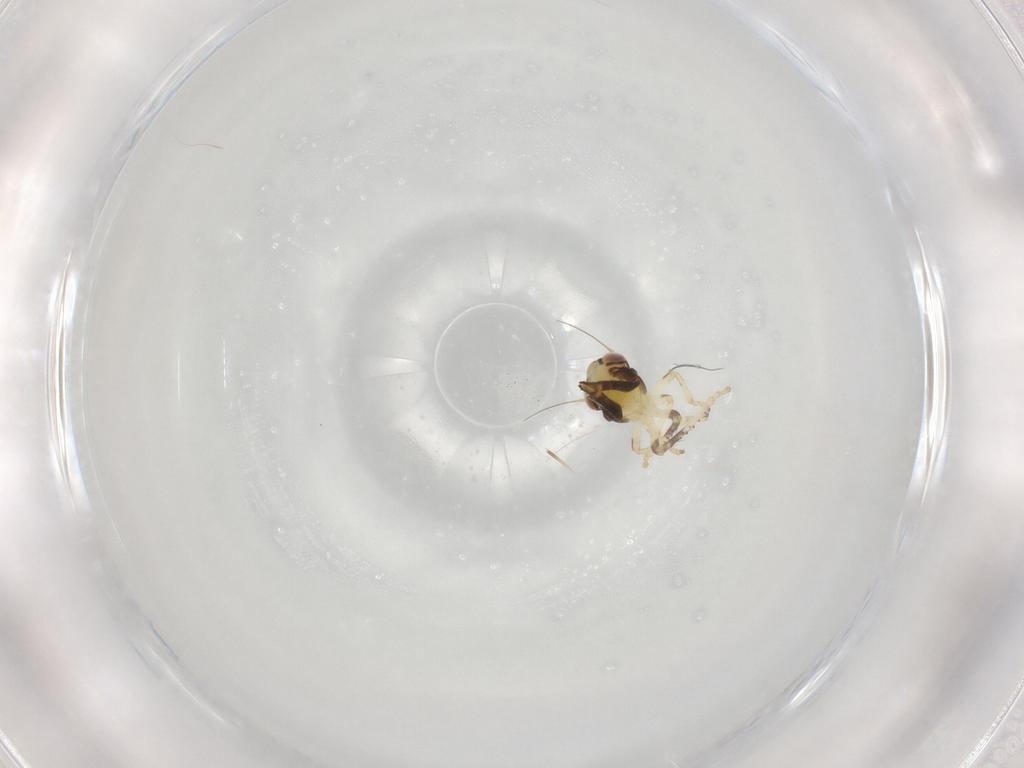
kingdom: Animalia
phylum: Arthropoda
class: Insecta
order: Hemiptera
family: Cicadellidae
